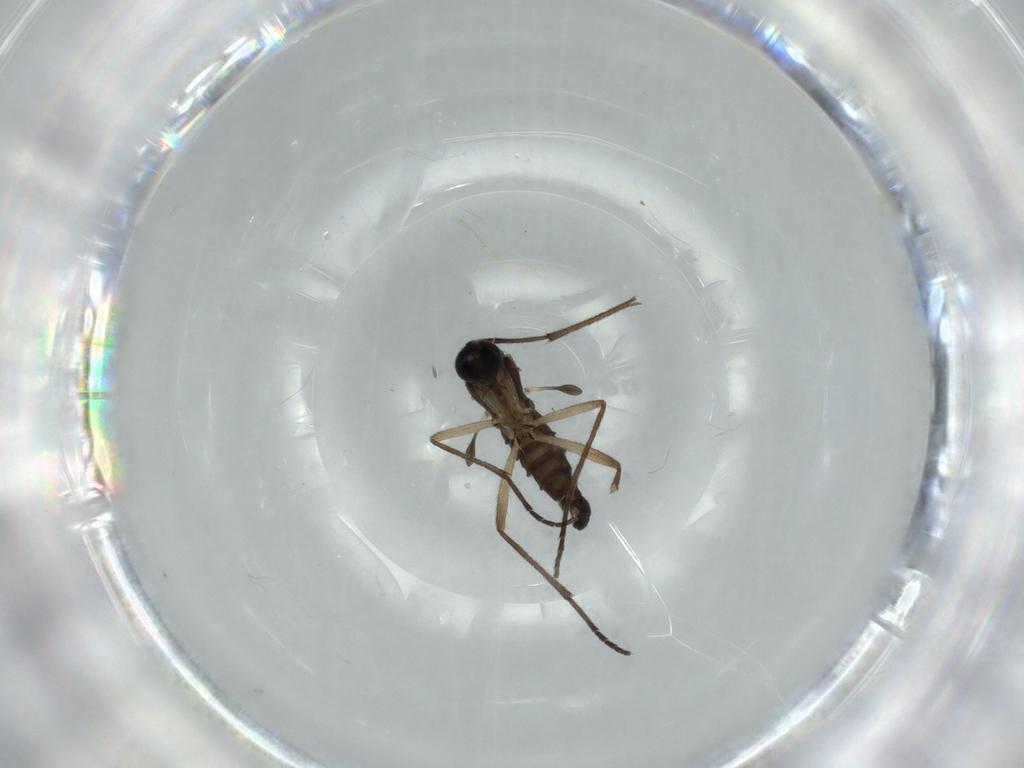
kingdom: Animalia
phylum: Arthropoda
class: Insecta
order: Diptera
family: Sciaridae
